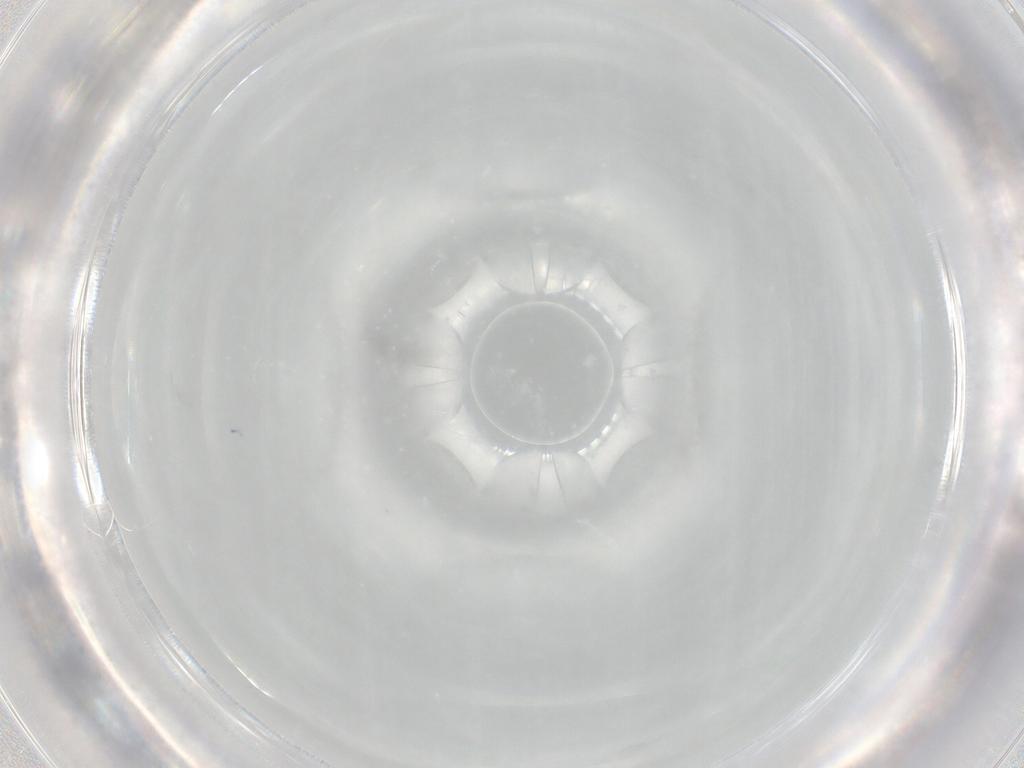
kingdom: Animalia
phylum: Arthropoda
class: Collembola
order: Entomobryomorpha
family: Entomobryidae
